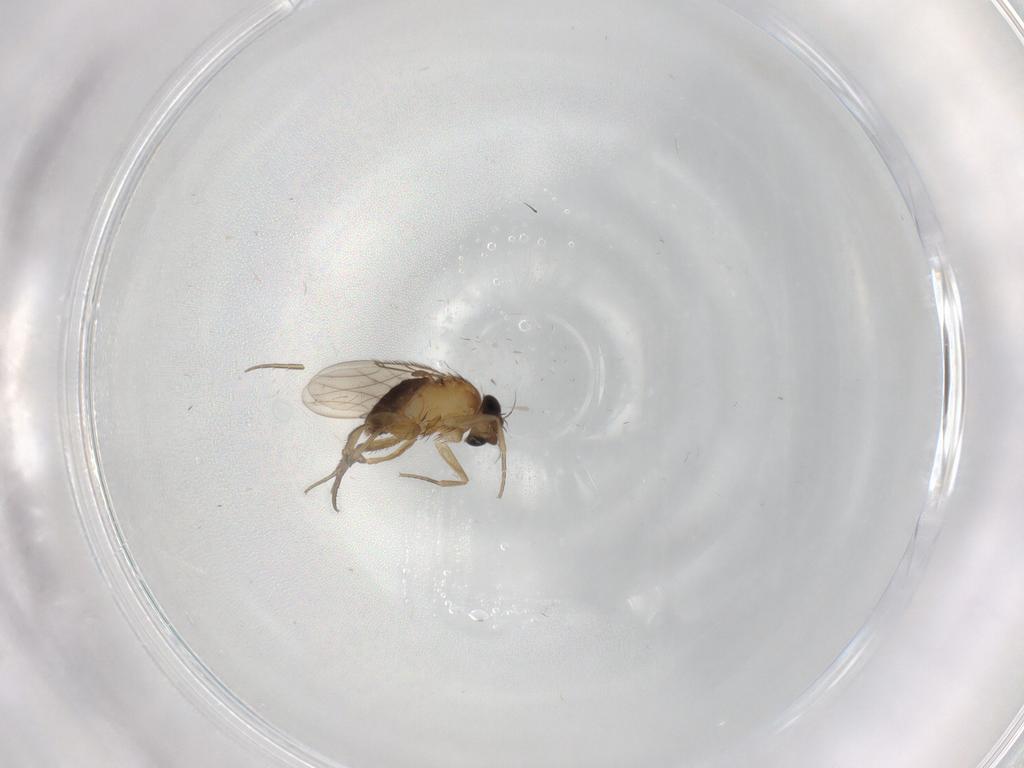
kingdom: Animalia
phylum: Arthropoda
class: Insecta
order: Diptera
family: Phoridae
